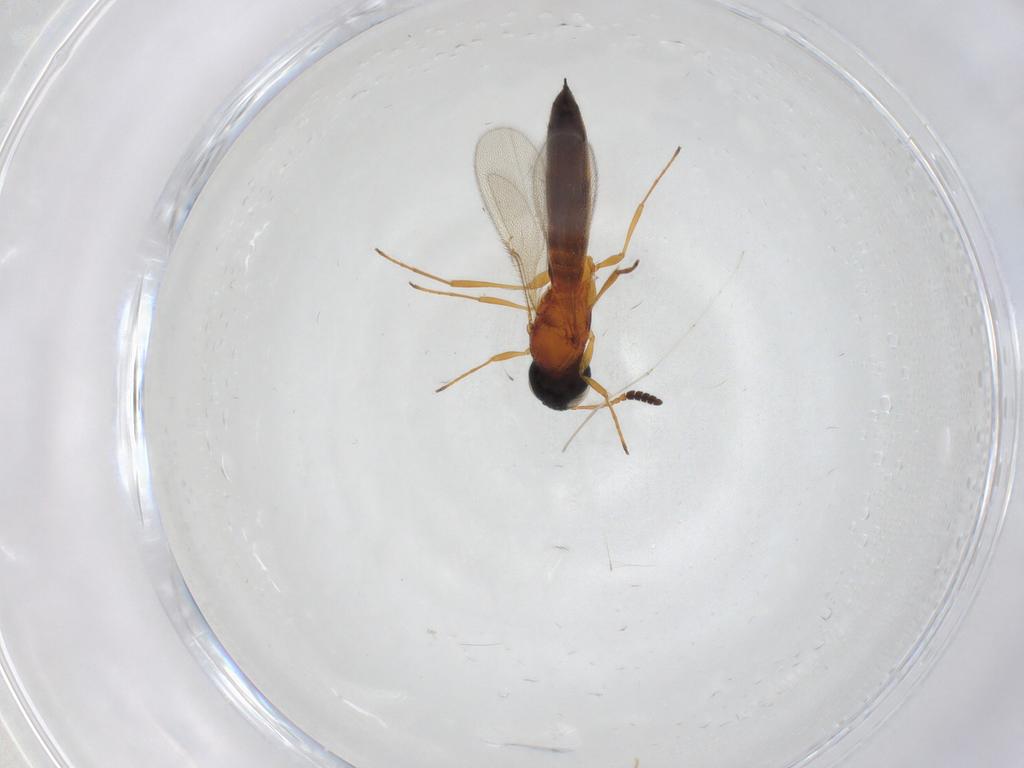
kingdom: Animalia
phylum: Arthropoda
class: Insecta
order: Hymenoptera
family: Scelionidae
